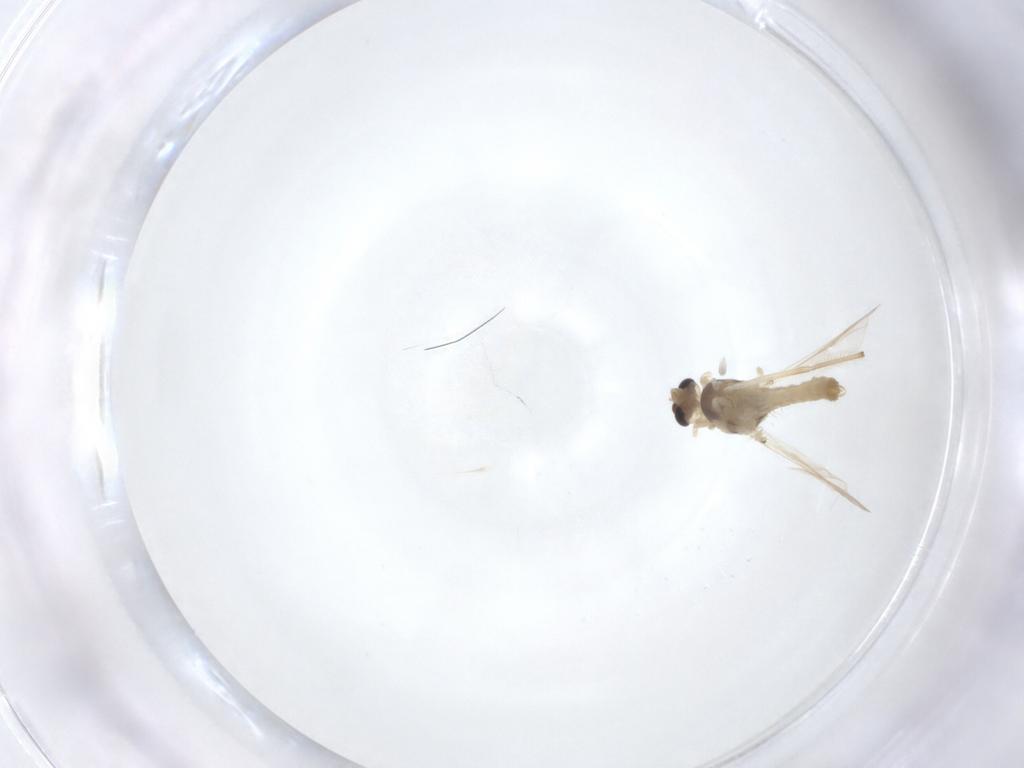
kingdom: Animalia
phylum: Arthropoda
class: Insecta
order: Diptera
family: Chironomidae
